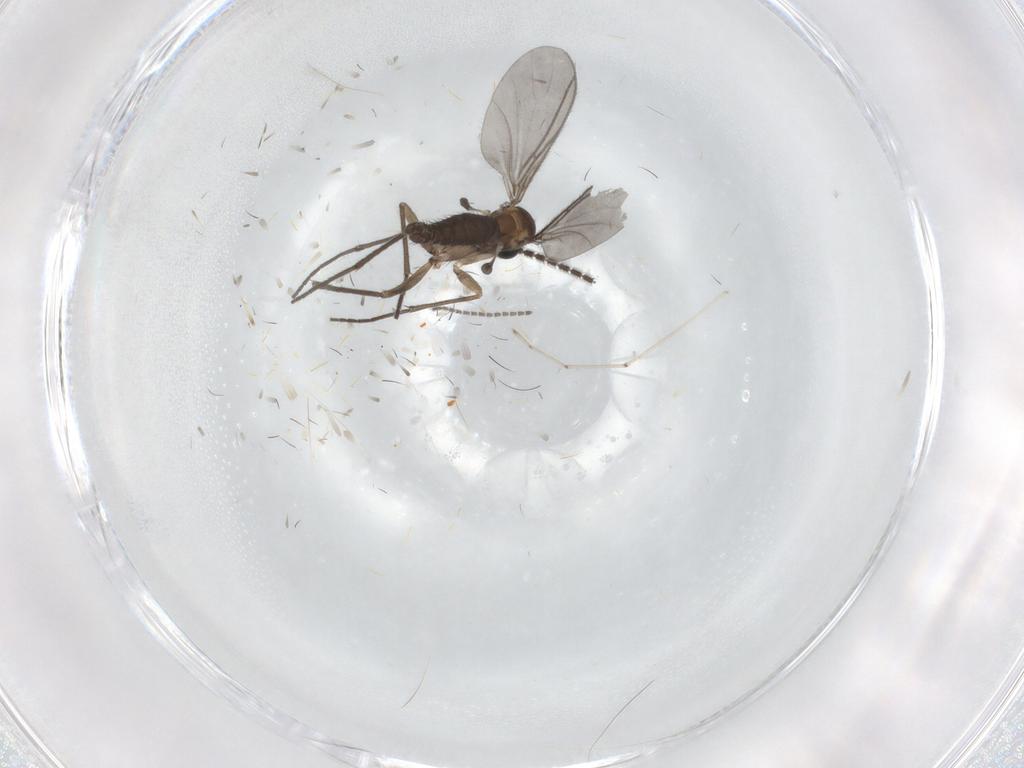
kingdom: Animalia
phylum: Arthropoda
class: Insecta
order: Diptera
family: Sciaridae
